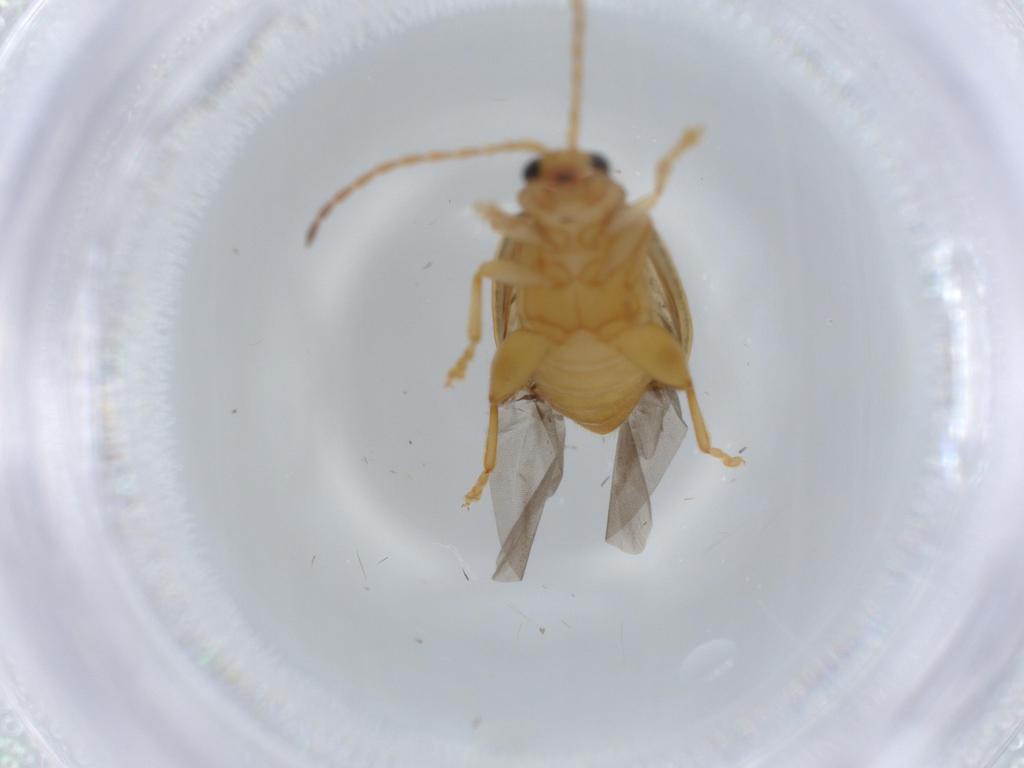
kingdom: Animalia
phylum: Arthropoda
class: Insecta
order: Coleoptera
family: Chrysomelidae
